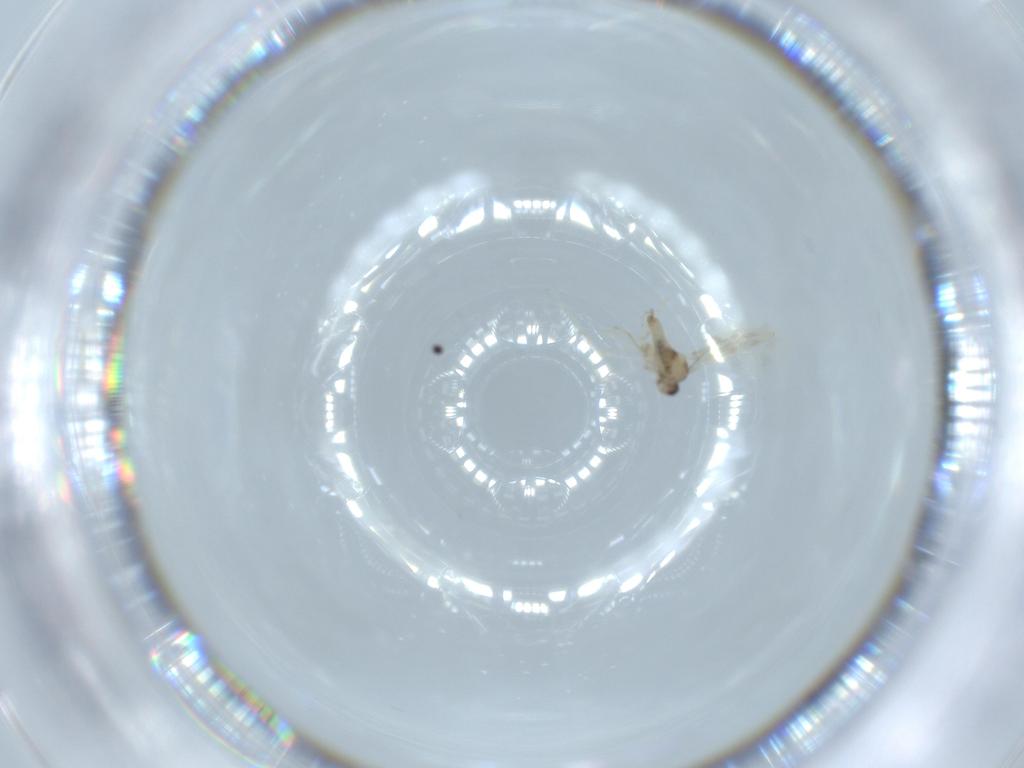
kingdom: Animalia
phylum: Arthropoda
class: Insecta
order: Diptera
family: Cecidomyiidae
